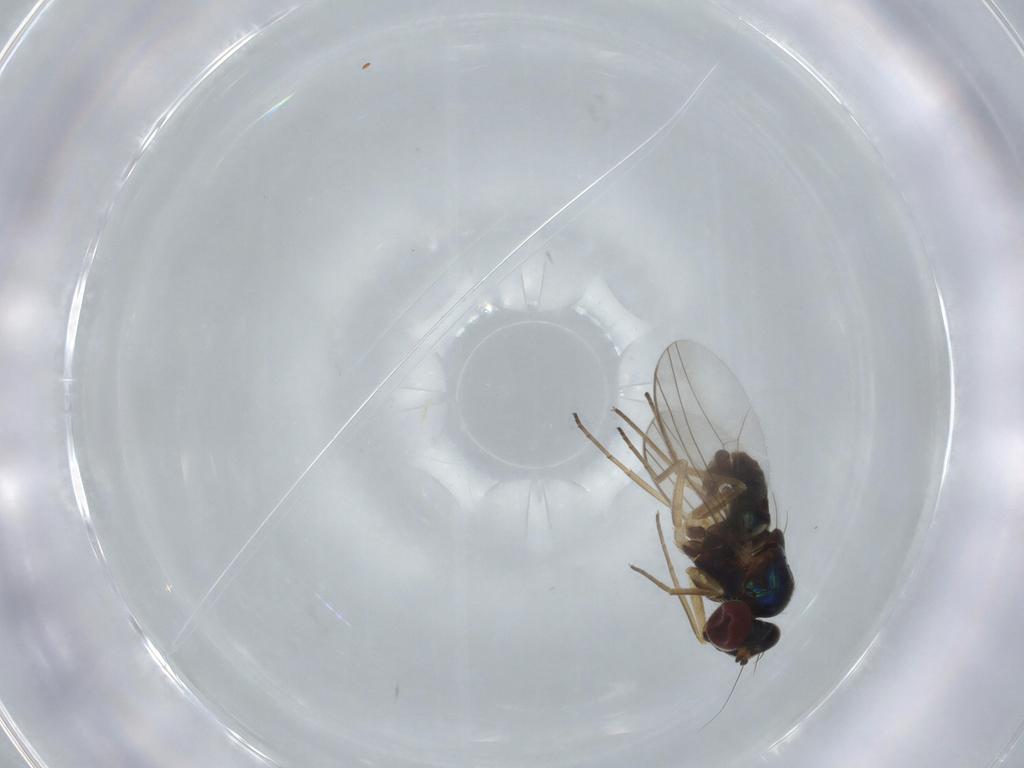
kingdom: Animalia
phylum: Arthropoda
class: Insecta
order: Diptera
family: Dolichopodidae
